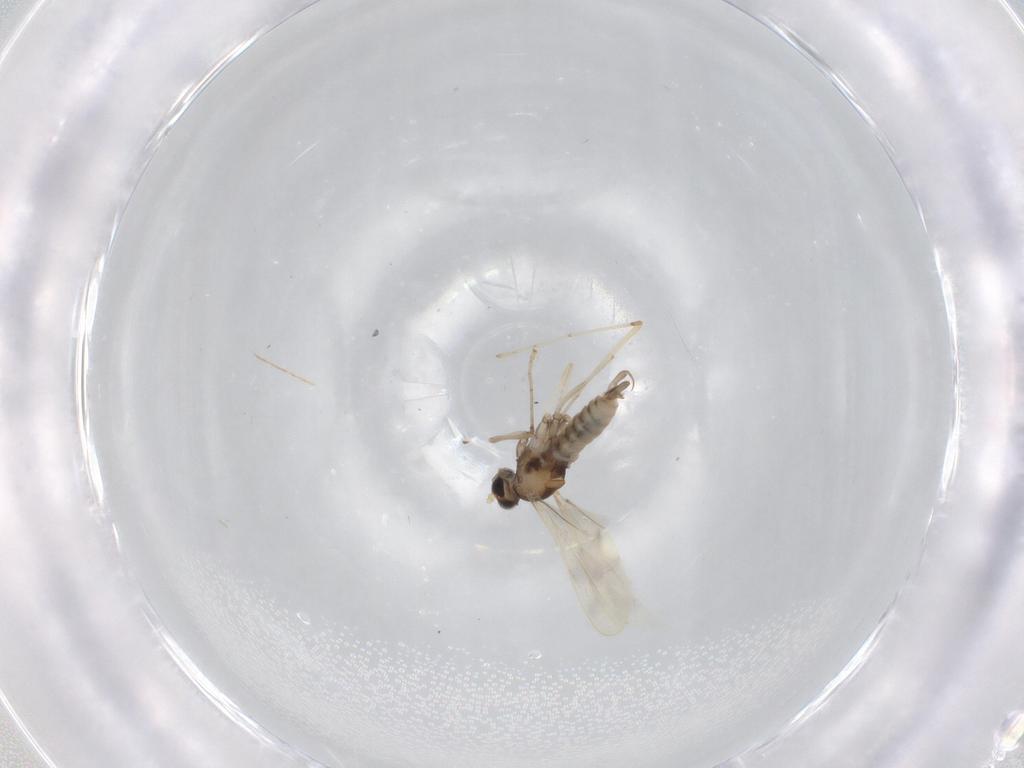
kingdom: Animalia
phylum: Arthropoda
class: Insecta
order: Diptera
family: Cecidomyiidae
